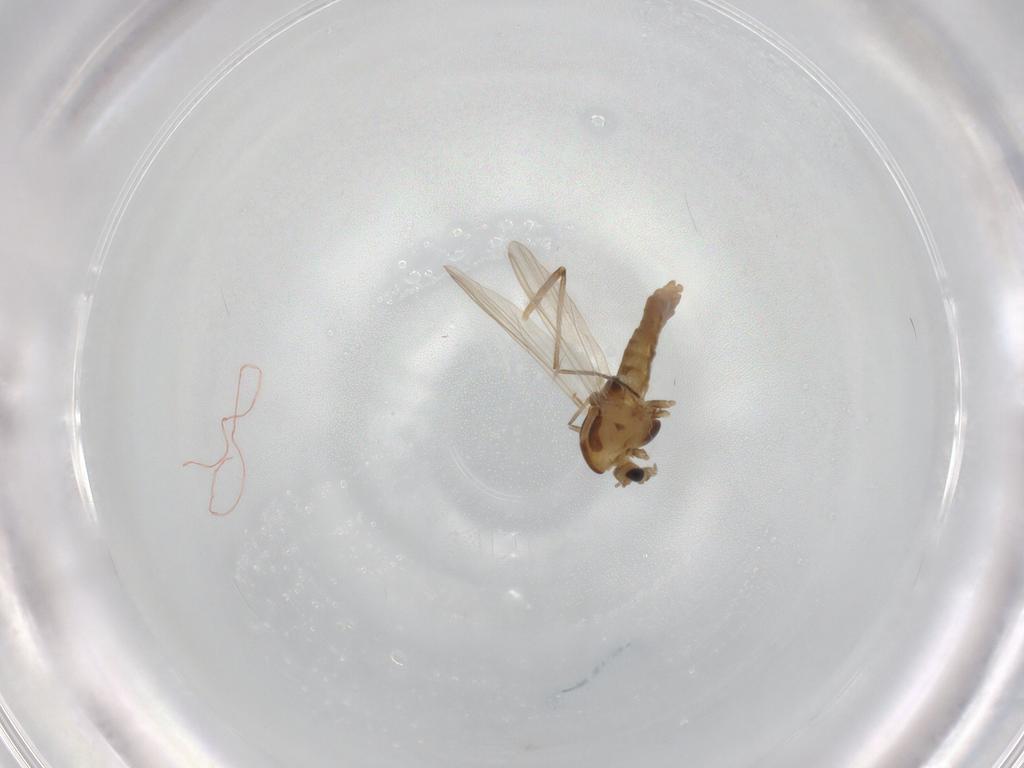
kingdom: Animalia
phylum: Arthropoda
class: Insecta
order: Diptera
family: Chironomidae
